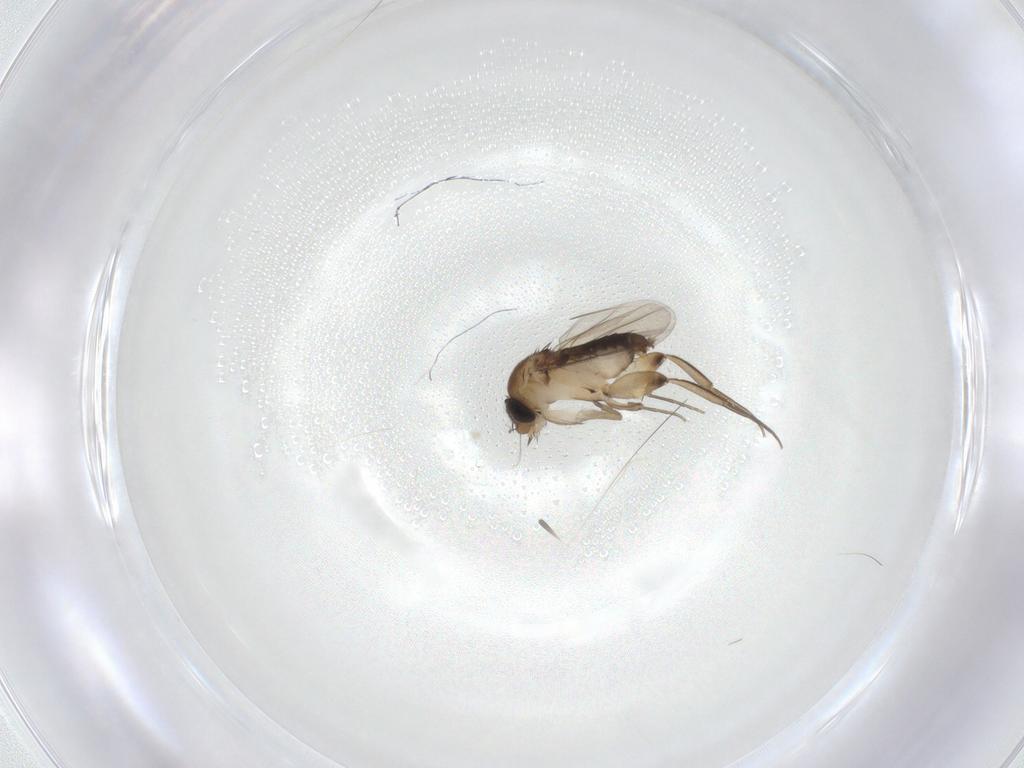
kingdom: Animalia
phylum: Arthropoda
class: Insecta
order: Diptera
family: Phoridae
